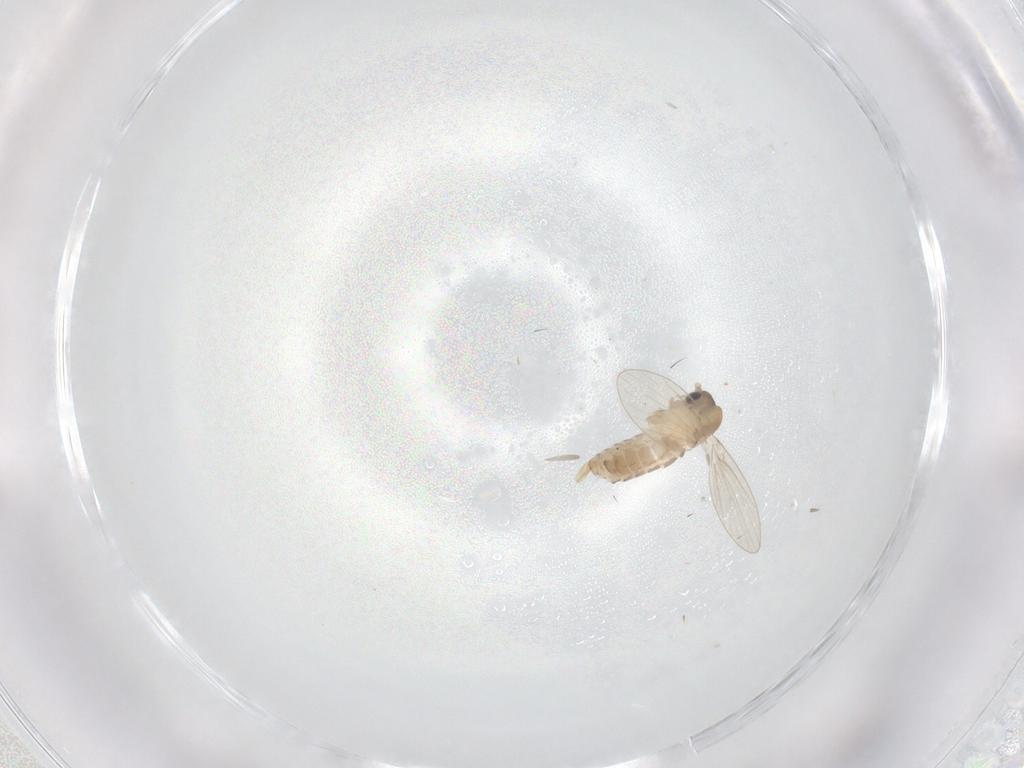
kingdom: Animalia
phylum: Arthropoda
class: Insecta
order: Diptera
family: Psychodidae
